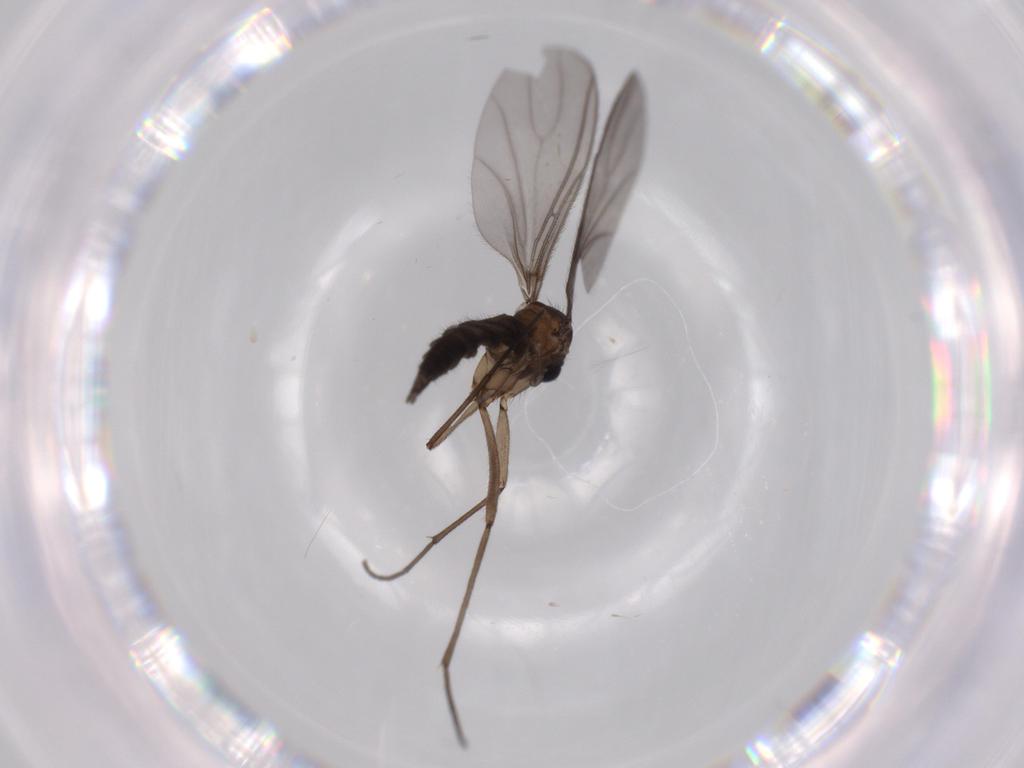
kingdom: Animalia
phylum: Arthropoda
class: Insecta
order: Diptera
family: Sciaridae
